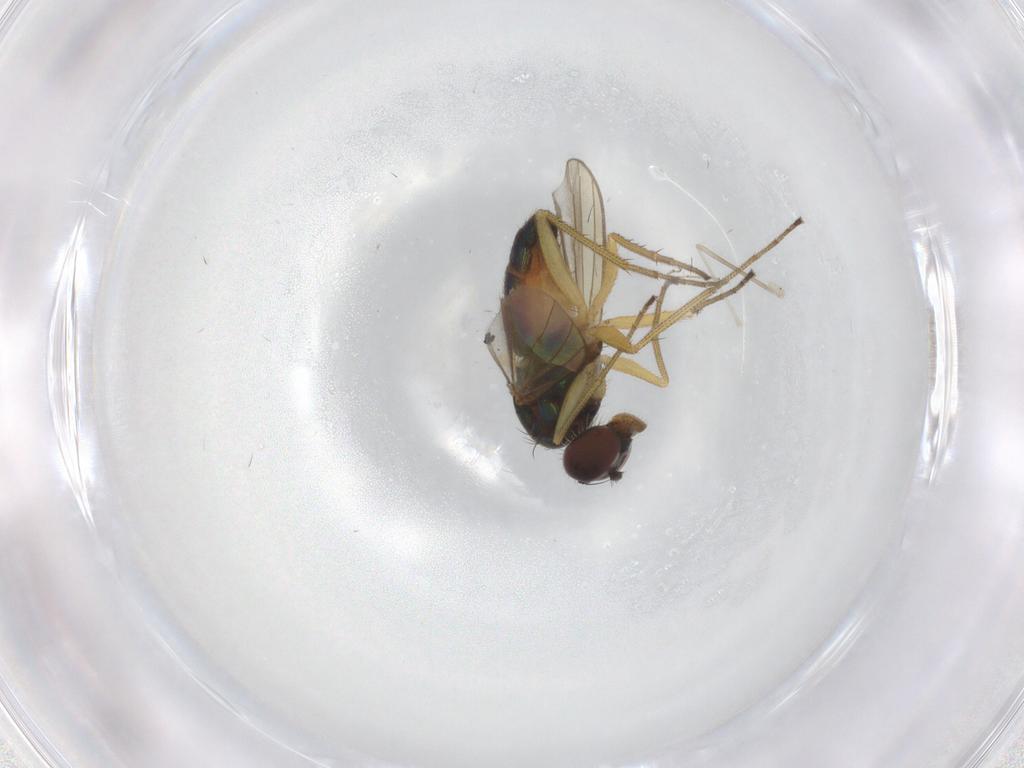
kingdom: Animalia
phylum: Arthropoda
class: Insecta
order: Diptera
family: Dolichopodidae
